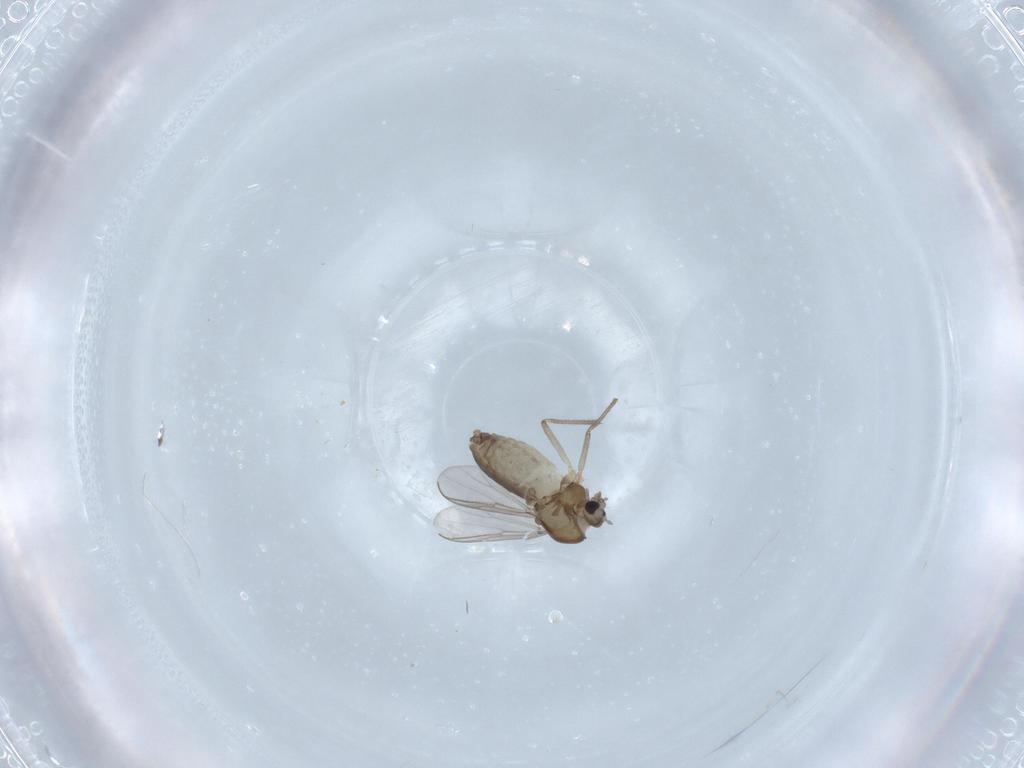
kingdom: Animalia
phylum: Arthropoda
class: Insecta
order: Diptera
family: Chironomidae
